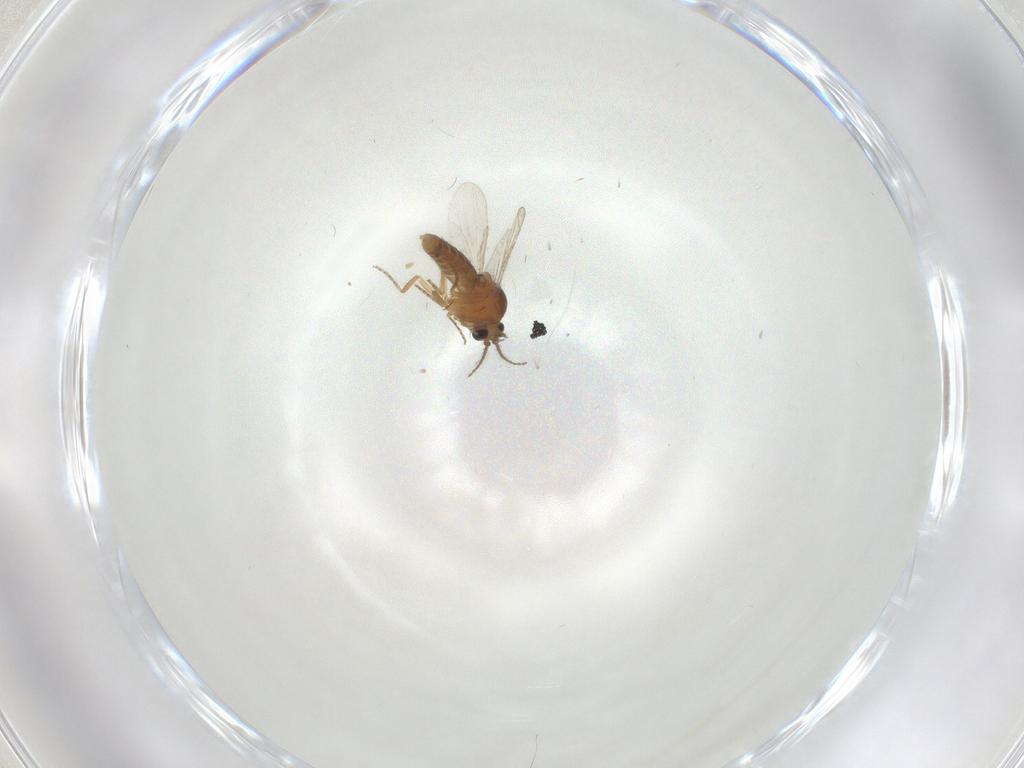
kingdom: Animalia
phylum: Arthropoda
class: Insecta
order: Diptera
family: Ceratopogonidae
